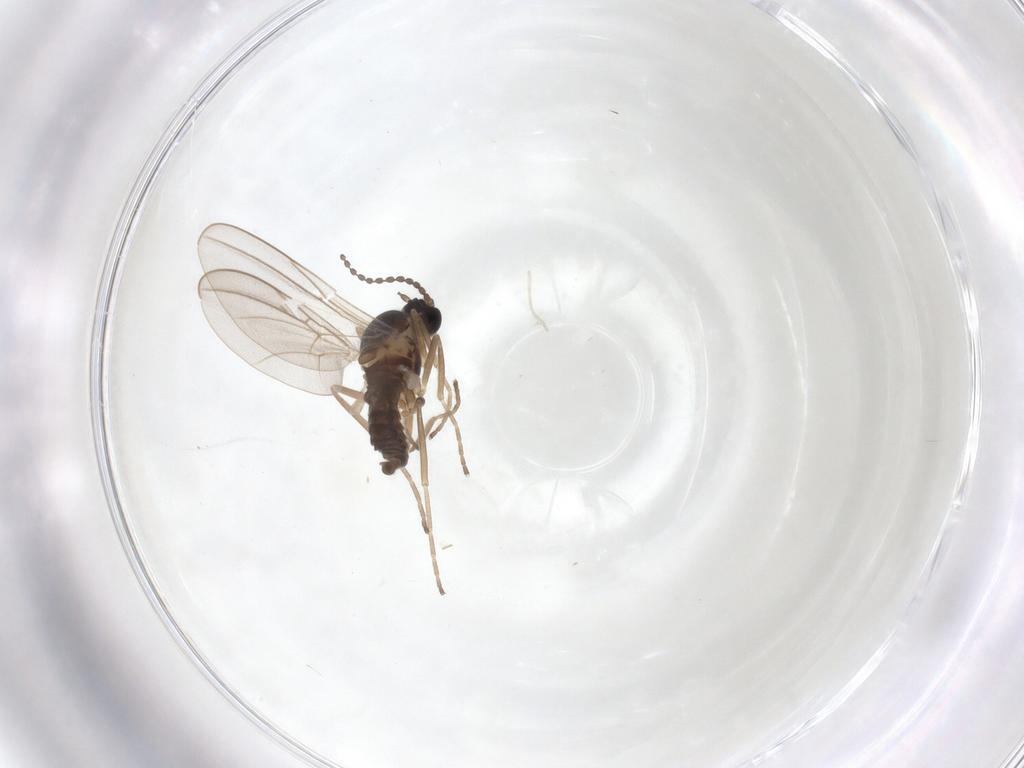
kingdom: Animalia
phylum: Arthropoda
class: Insecta
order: Diptera
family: Cecidomyiidae
